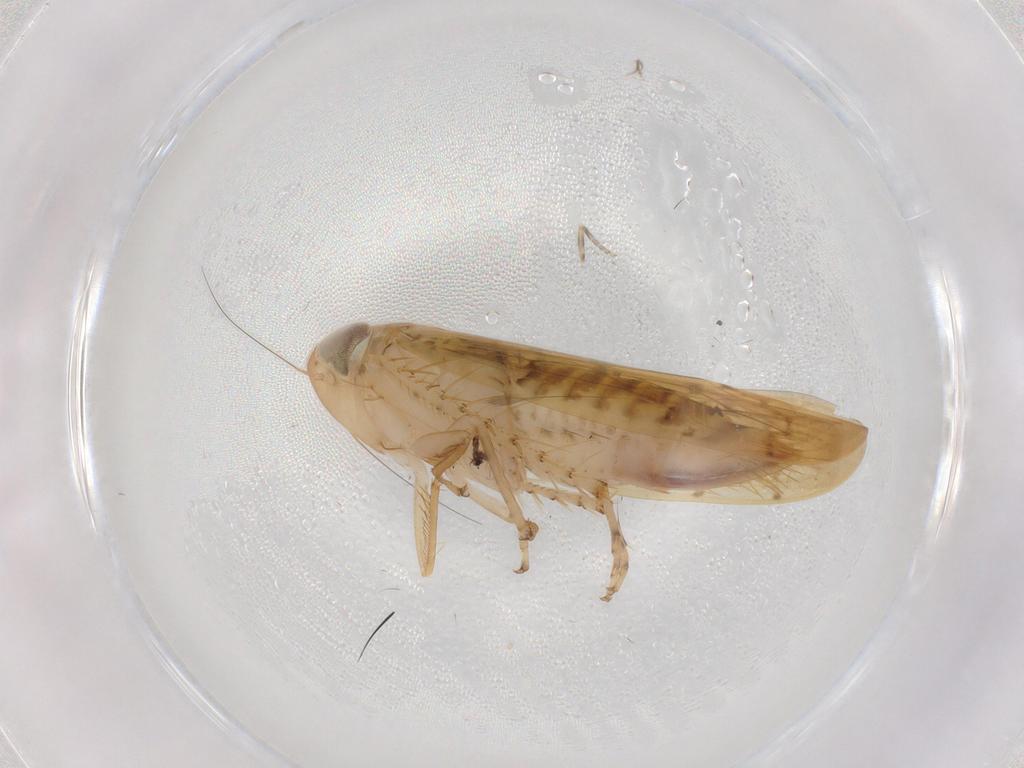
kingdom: Animalia
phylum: Arthropoda
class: Insecta
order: Hemiptera
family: Cicadellidae
